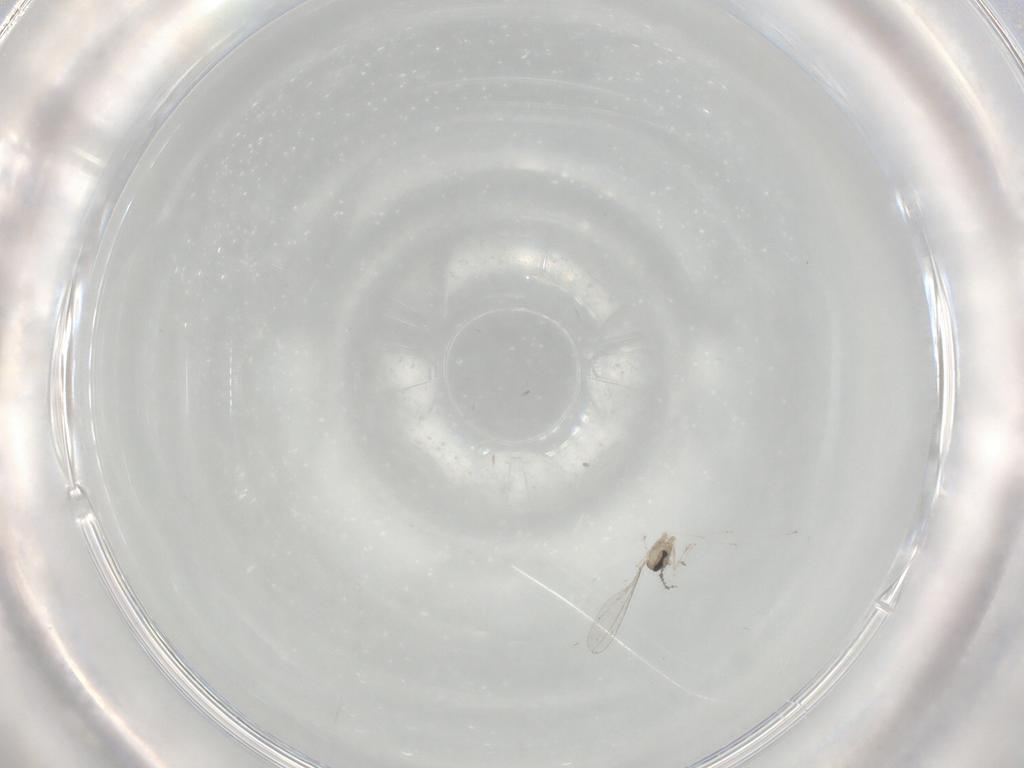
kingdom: Animalia
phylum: Arthropoda
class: Insecta
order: Diptera
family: Cecidomyiidae
